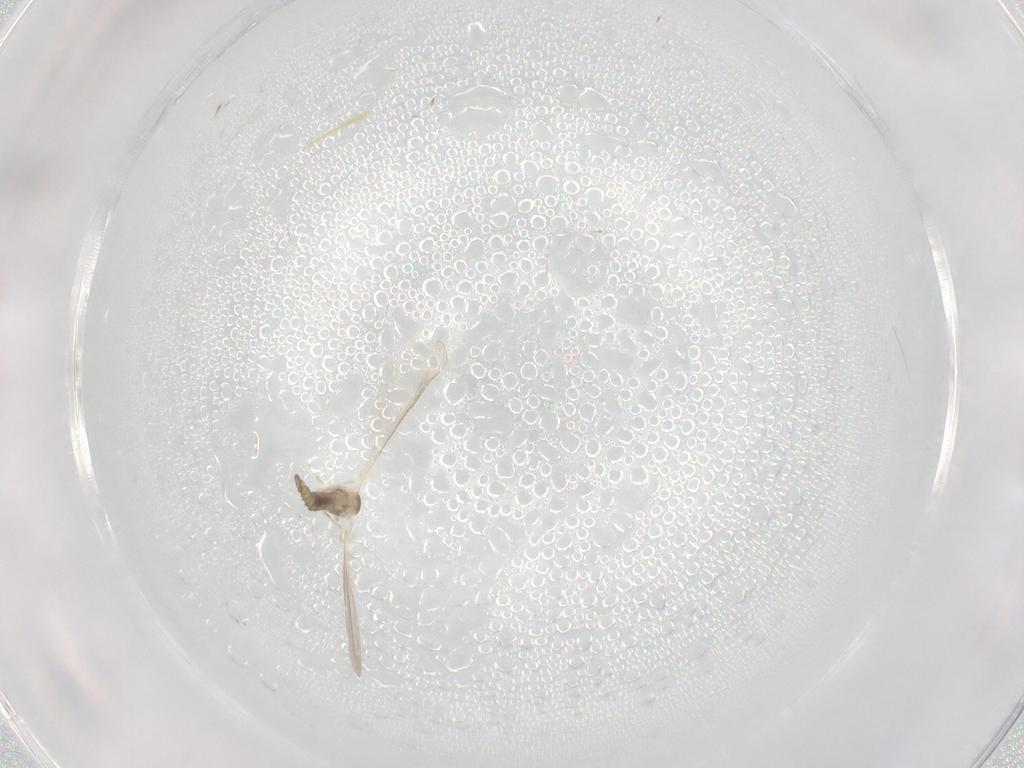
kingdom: Animalia
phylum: Arthropoda
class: Insecta
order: Diptera
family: Cecidomyiidae
